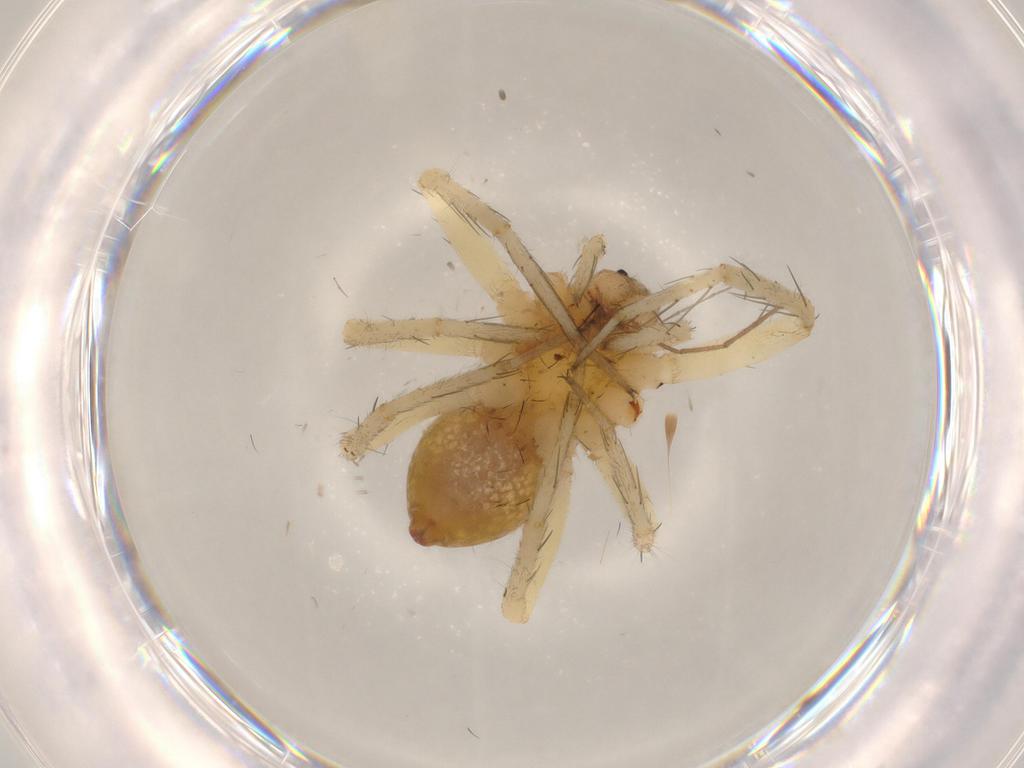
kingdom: Animalia
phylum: Arthropoda
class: Arachnida
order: Araneae
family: Pisauridae
